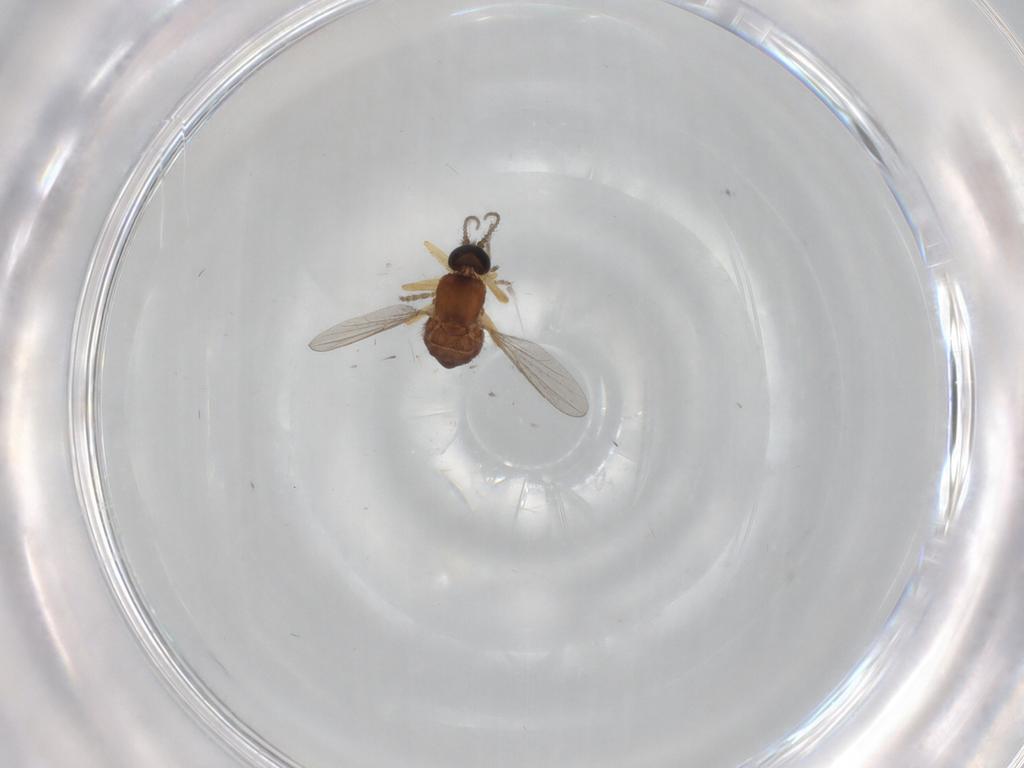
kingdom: Animalia
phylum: Arthropoda
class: Insecta
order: Diptera
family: Ceratopogonidae
